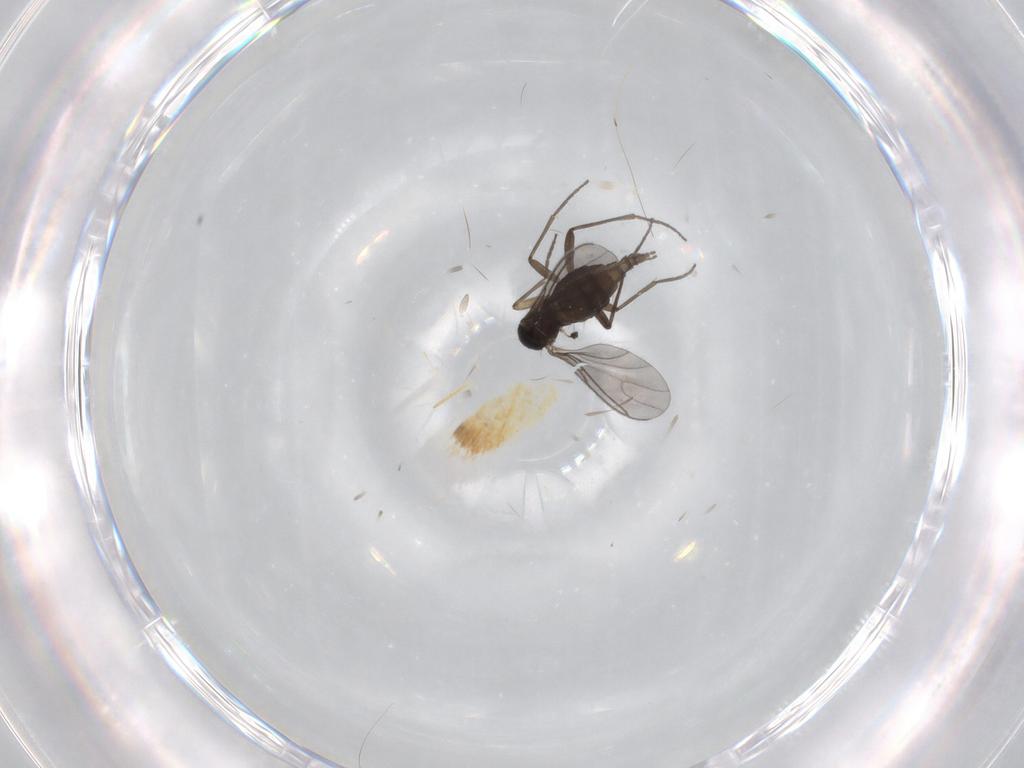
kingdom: Animalia
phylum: Arthropoda
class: Insecta
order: Diptera
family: Sciaridae
